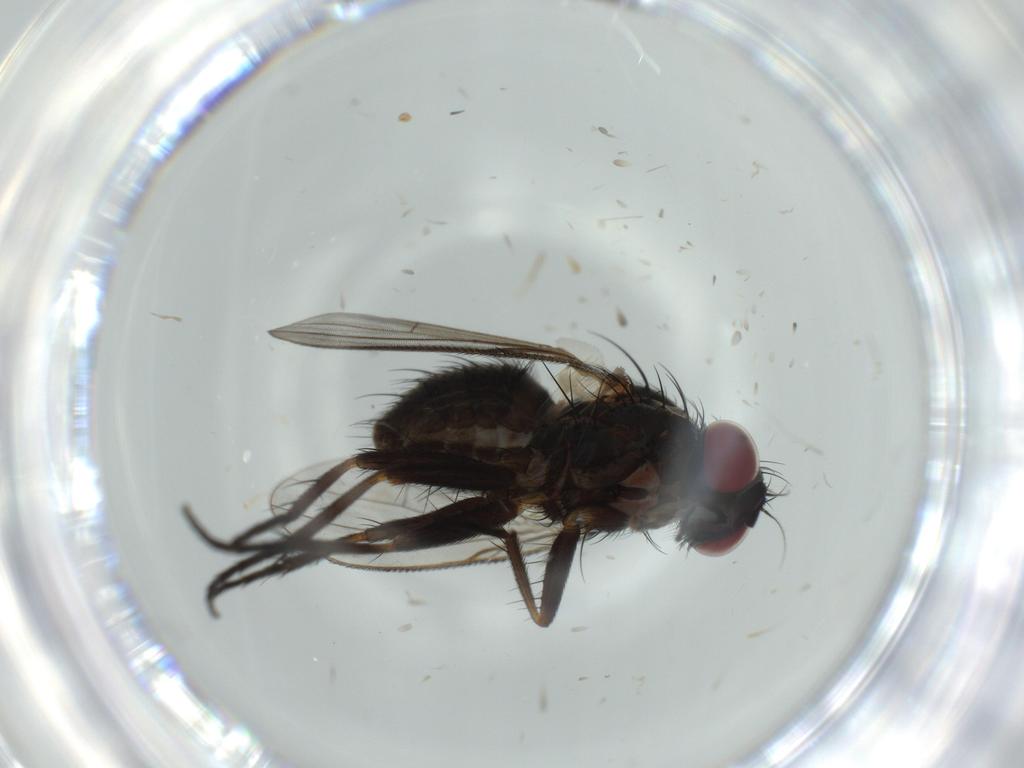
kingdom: Animalia
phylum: Arthropoda
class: Insecta
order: Diptera
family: Muscidae
